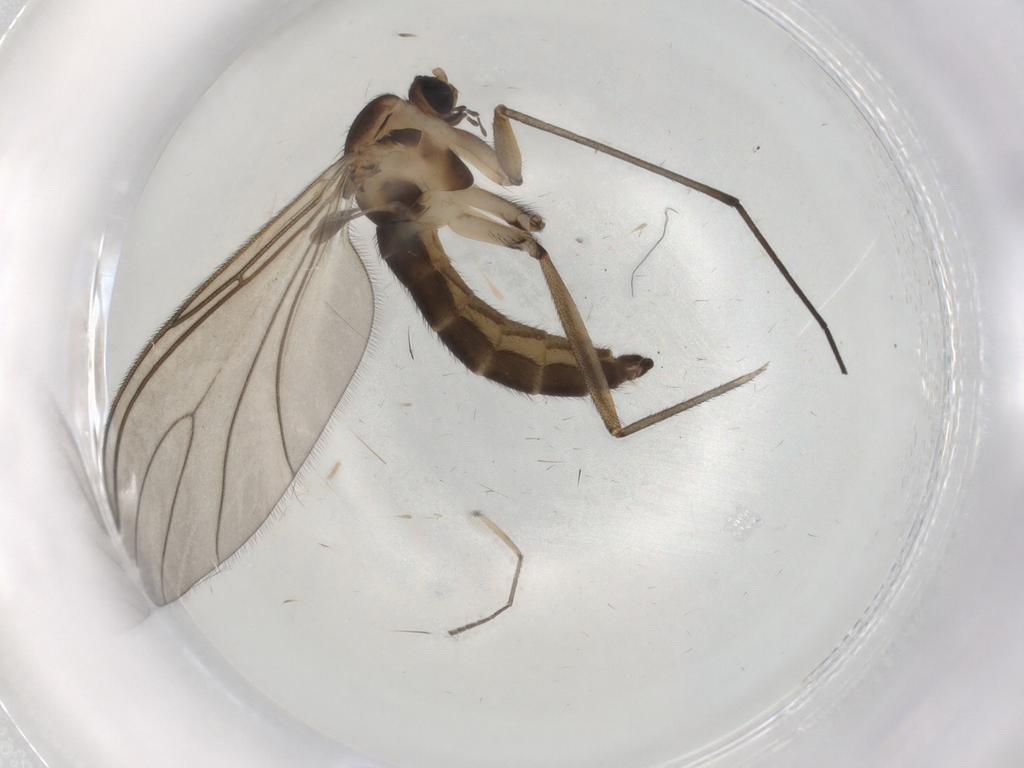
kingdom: Animalia
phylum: Arthropoda
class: Insecta
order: Diptera
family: Sciaridae
